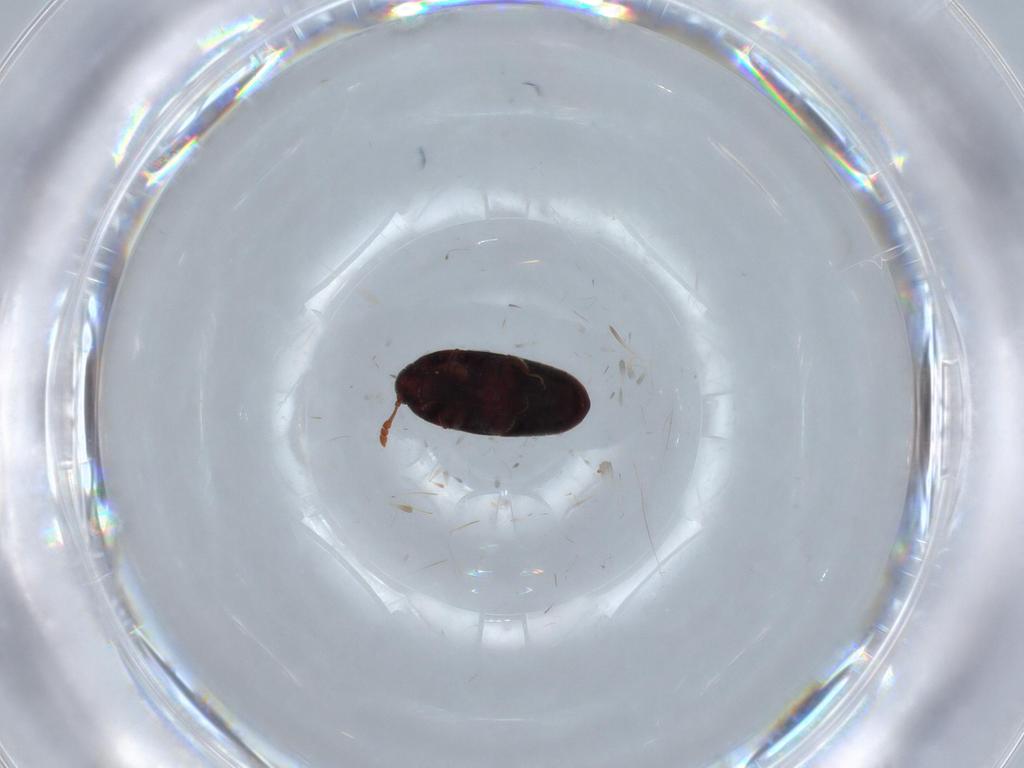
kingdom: Animalia
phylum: Arthropoda
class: Insecta
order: Coleoptera
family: Throscidae
